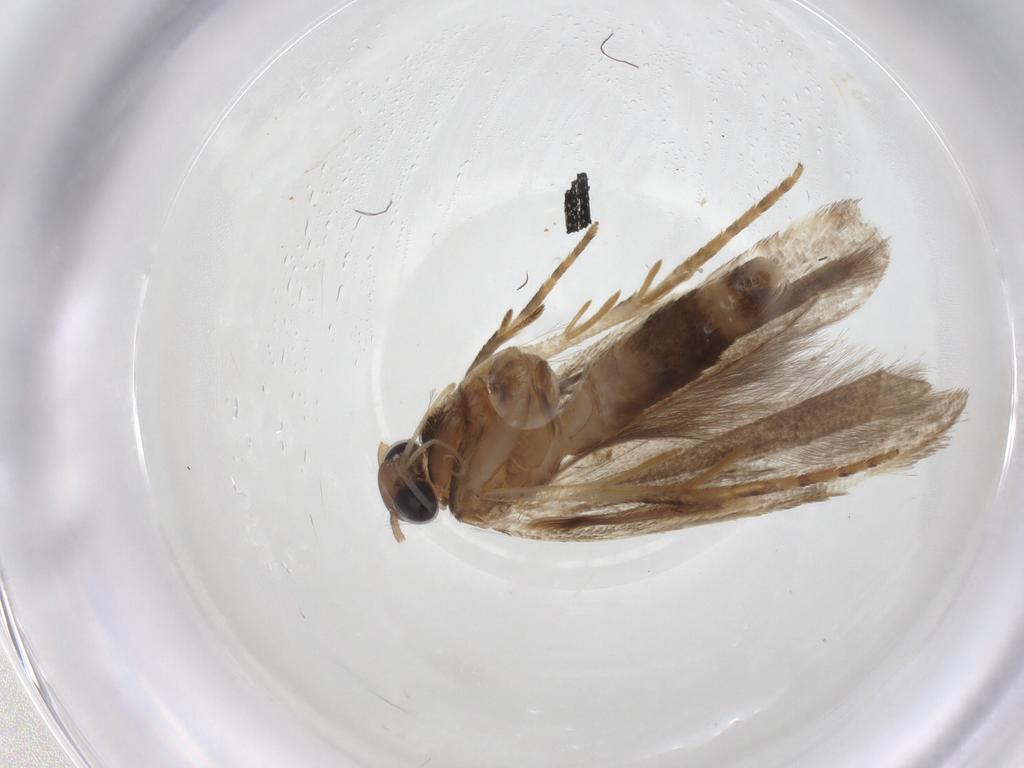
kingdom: Animalia
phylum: Arthropoda
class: Insecta
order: Lepidoptera
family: Gelechiidae
